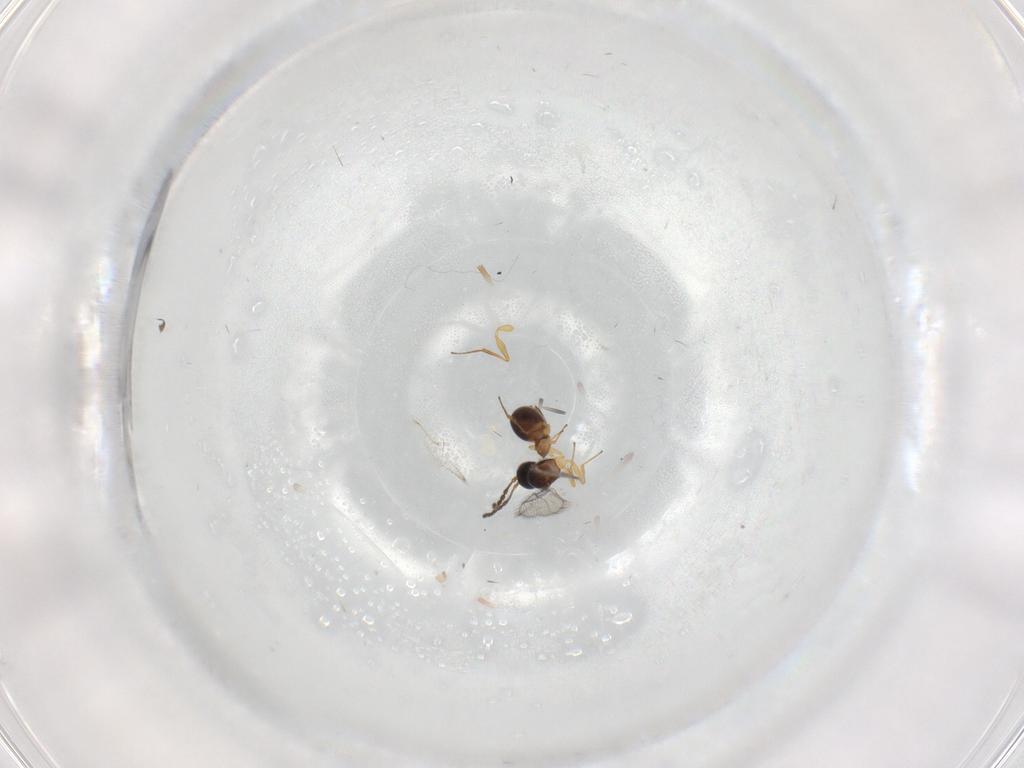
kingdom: Animalia
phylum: Arthropoda
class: Insecta
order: Hymenoptera
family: Figitidae
